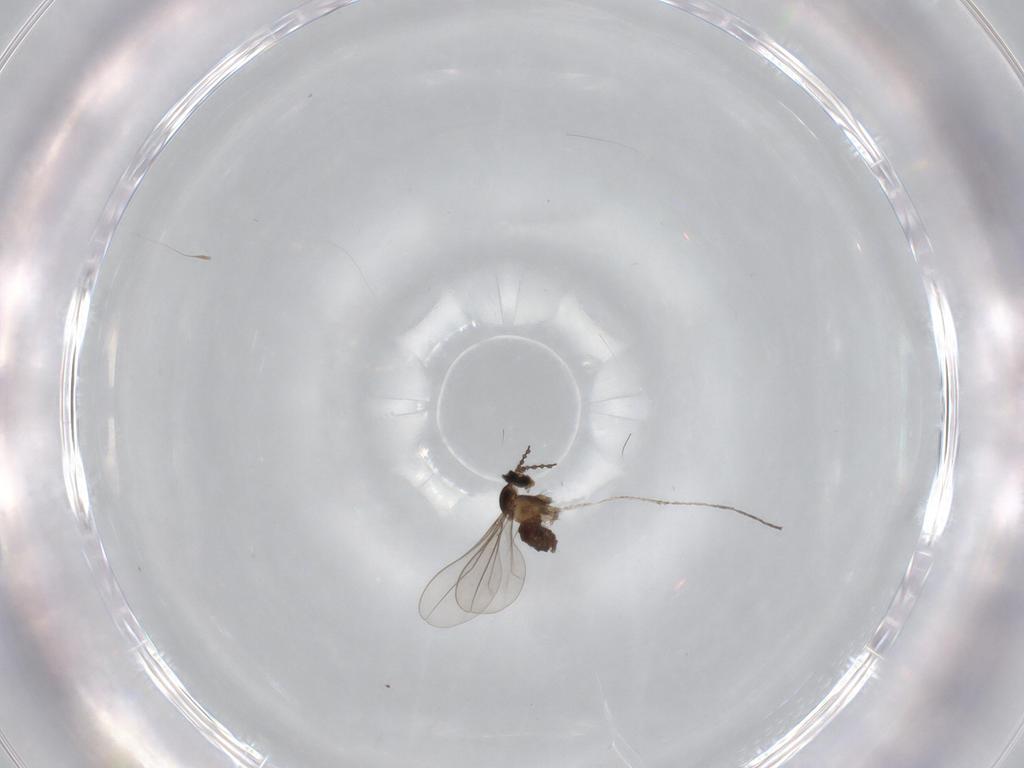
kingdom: Animalia
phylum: Arthropoda
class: Insecta
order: Diptera
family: Cecidomyiidae
